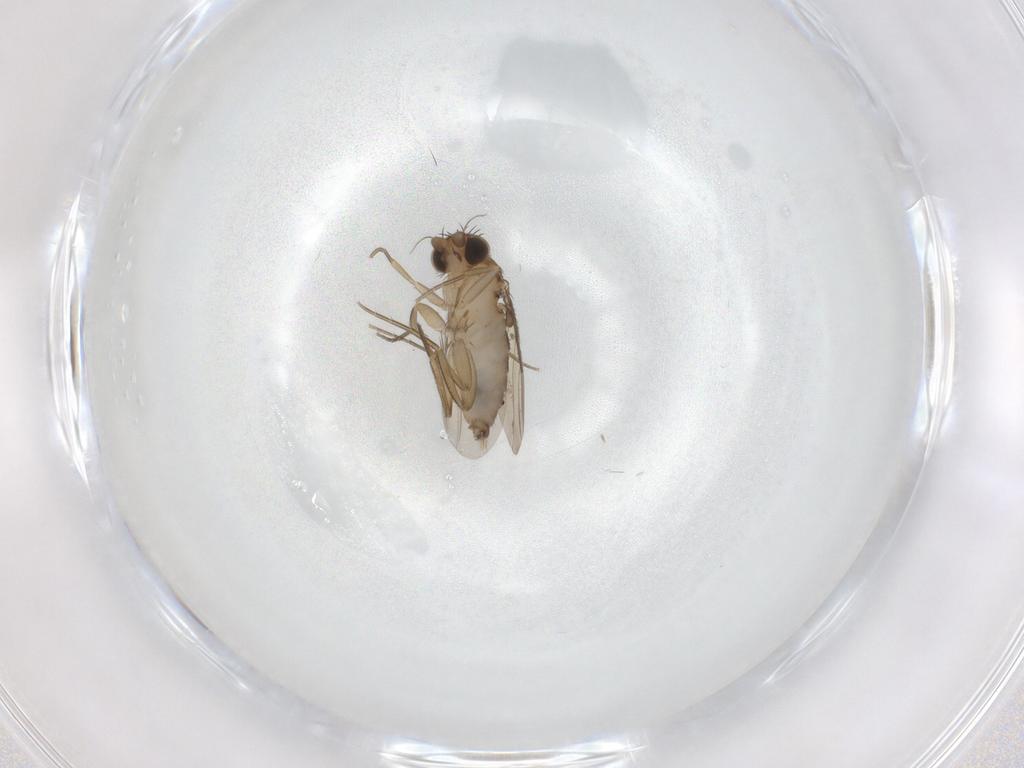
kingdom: Animalia
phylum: Arthropoda
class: Insecta
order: Diptera
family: Phoridae
